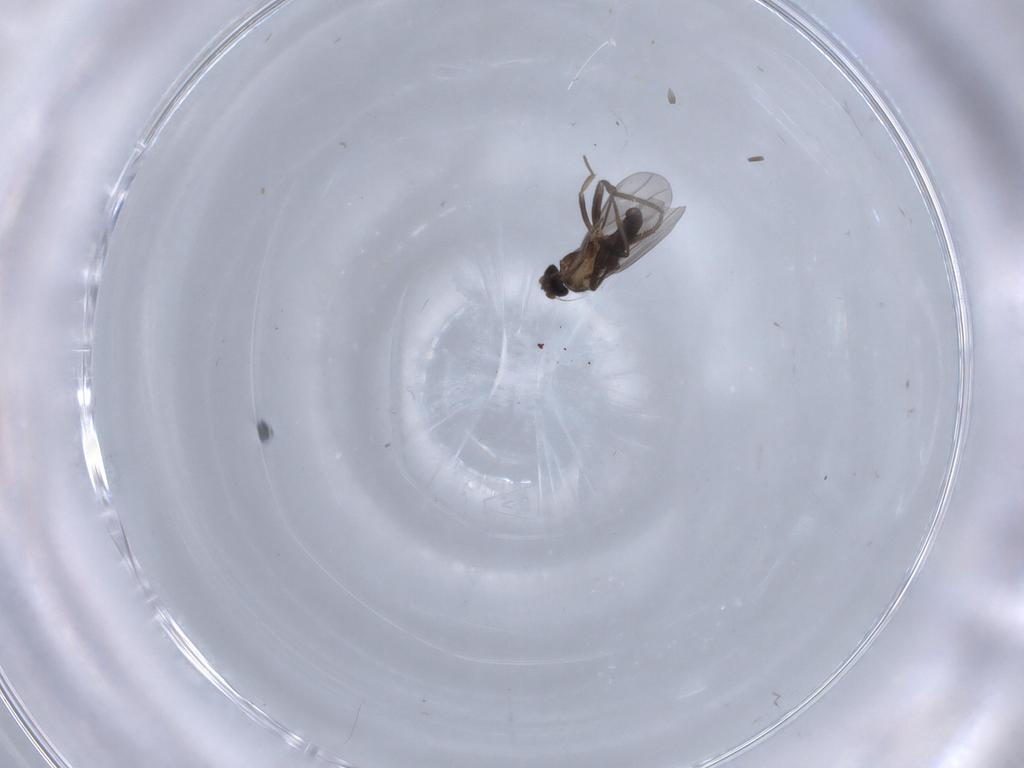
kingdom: Animalia
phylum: Arthropoda
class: Insecta
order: Diptera
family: Phoridae
